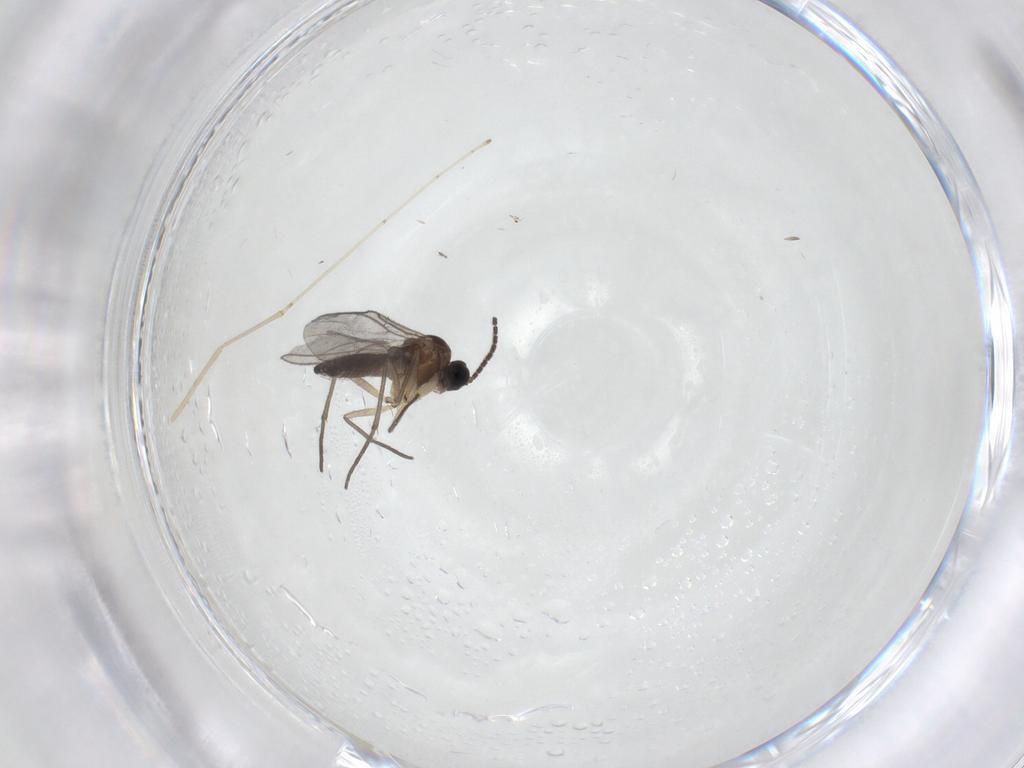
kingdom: Animalia
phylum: Arthropoda
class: Insecta
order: Diptera
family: Sciaridae
